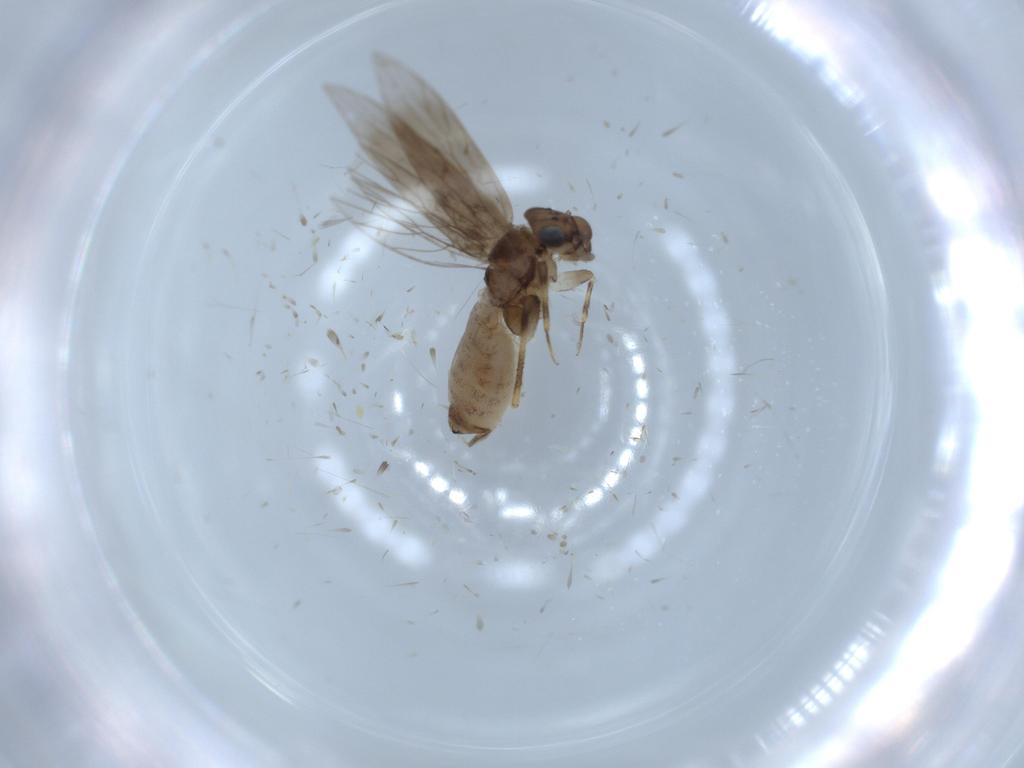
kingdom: Animalia
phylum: Arthropoda
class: Insecta
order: Psocodea
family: Lepidopsocidae
